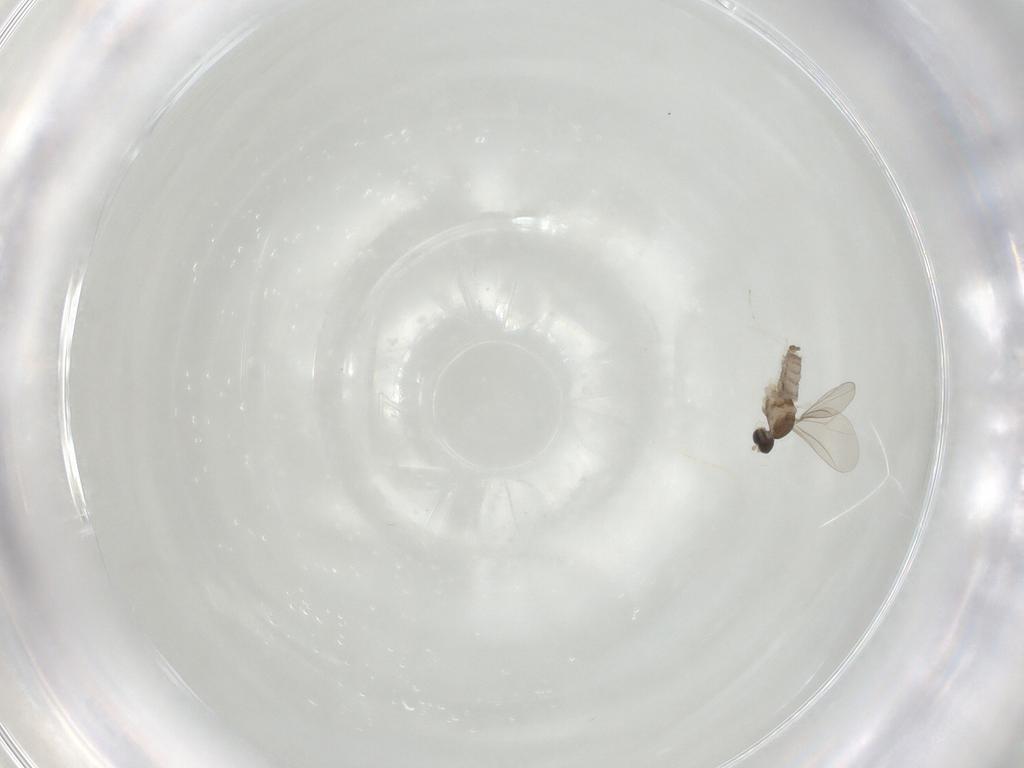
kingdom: Animalia
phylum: Arthropoda
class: Insecta
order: Diptera
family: Cecidomyiidae
